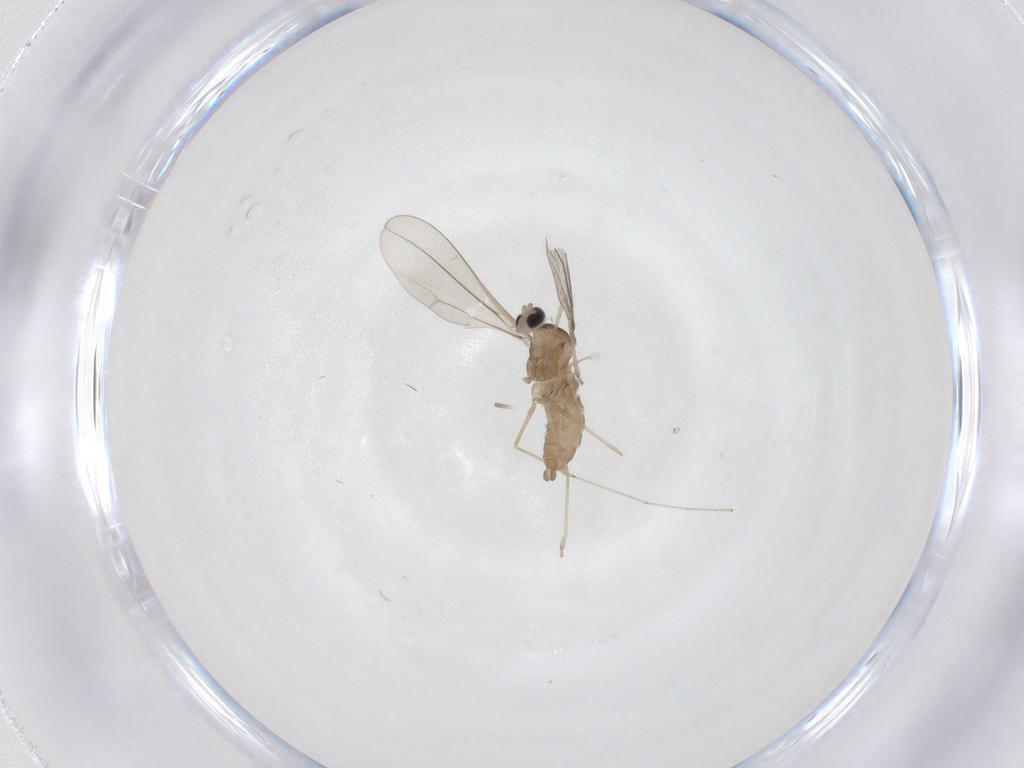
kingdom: Animalia
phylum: Arthropoda
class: Insecta
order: Diptera
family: Cecidomyiidae
